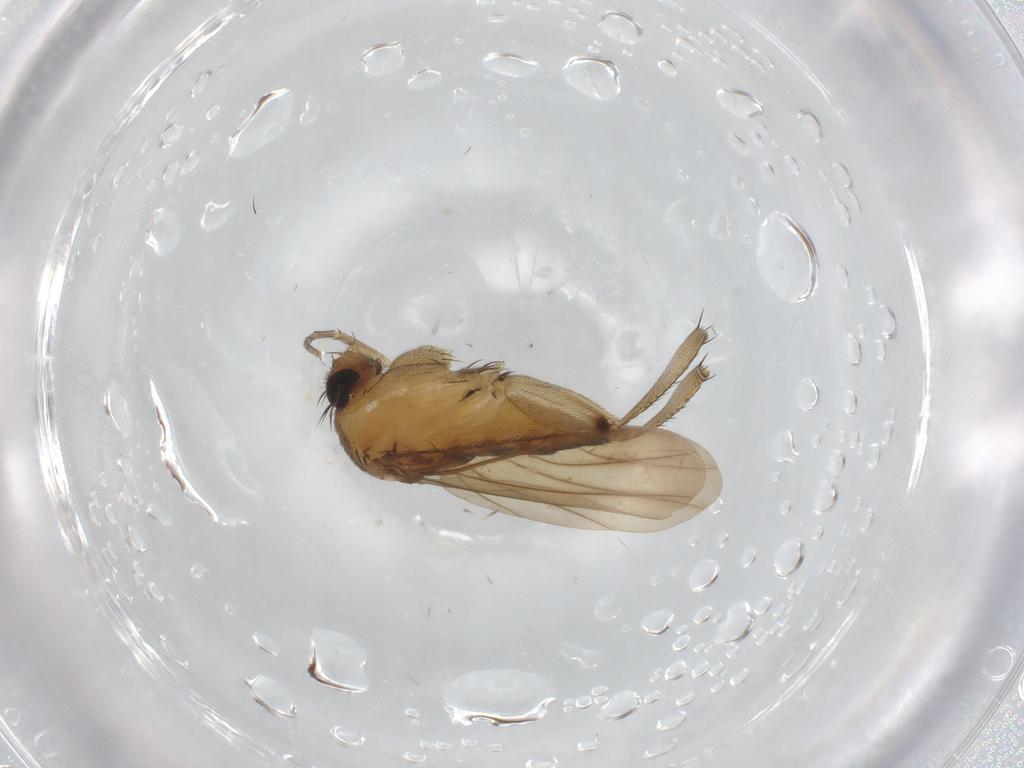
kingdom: Animalia
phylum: Arthropoda
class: Insecta
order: Diptera
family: Phoridae
